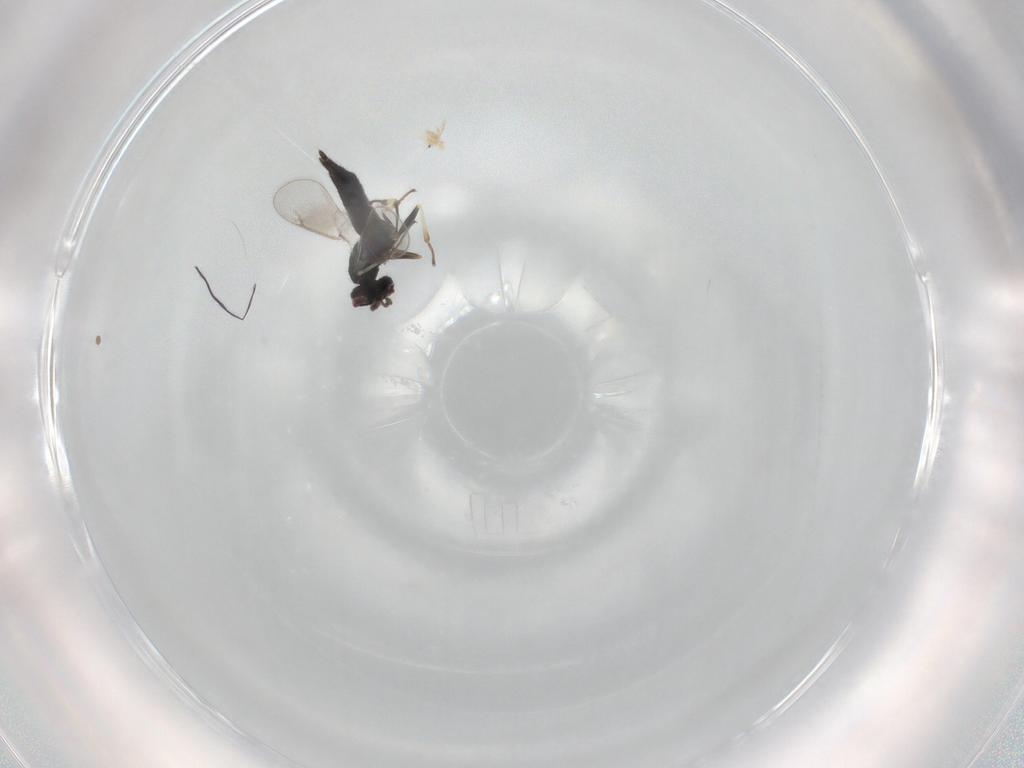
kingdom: Animalia
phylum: Arthropoda
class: Insecta
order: Hymenoptera
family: Eulophidae
